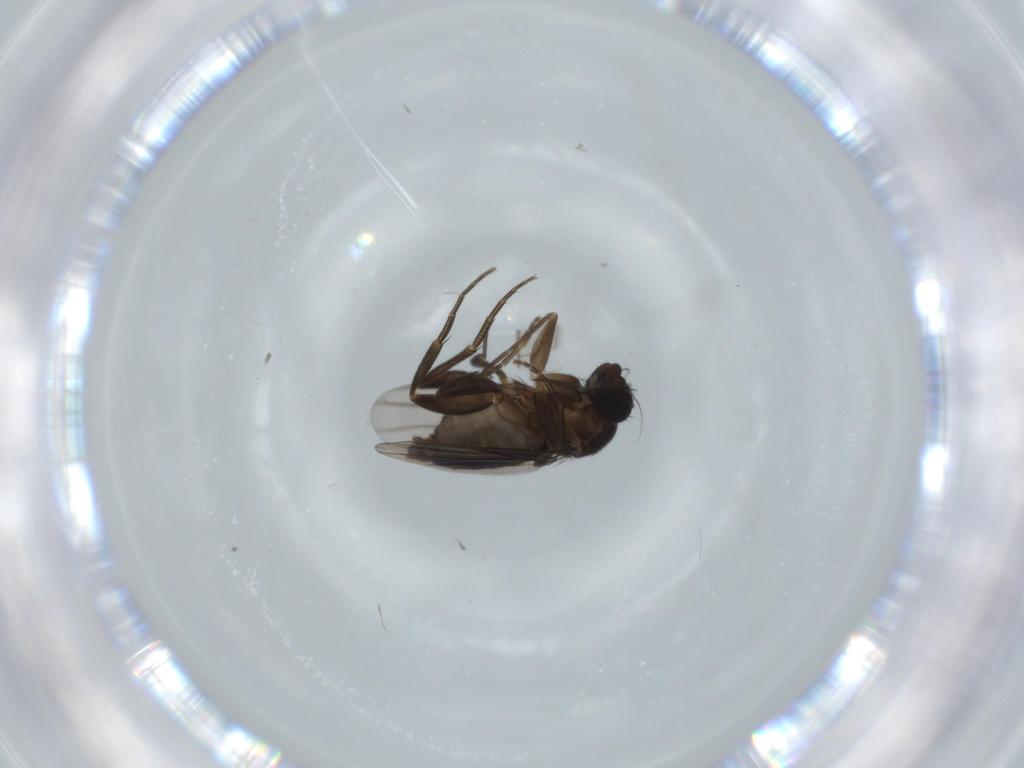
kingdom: Animalia
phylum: Arthropoda
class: Insecta
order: Diptera
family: Phoridae
